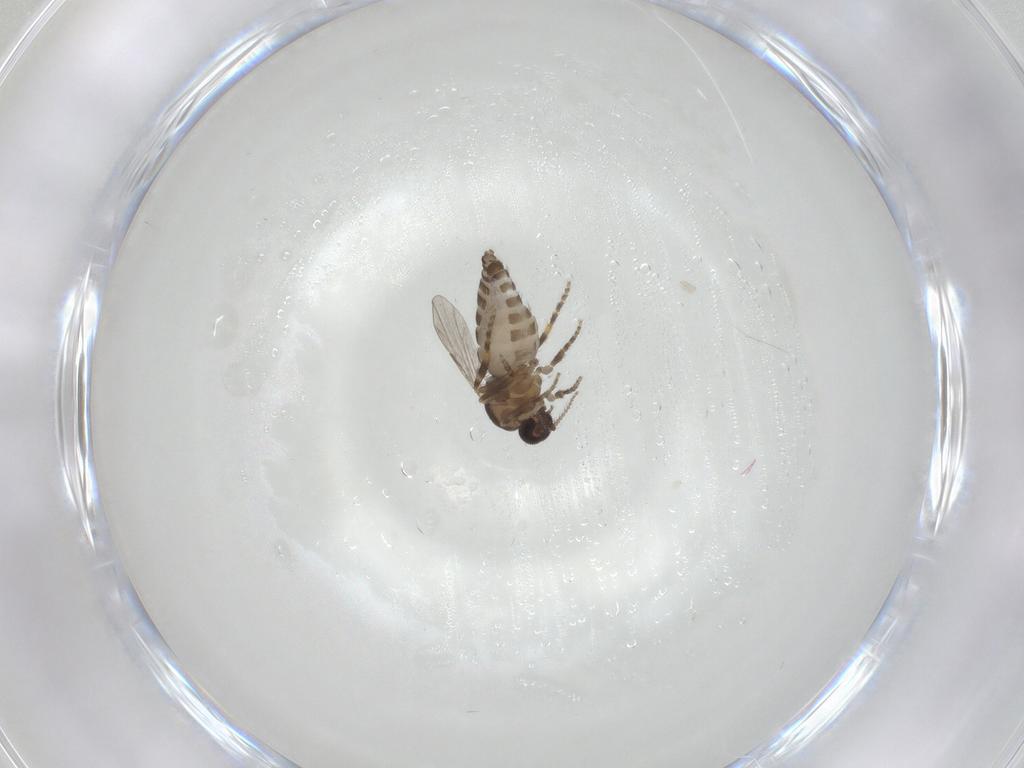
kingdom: Animalia
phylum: Arthropoda
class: Insecta
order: Diptera
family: Ceratopogonidae
